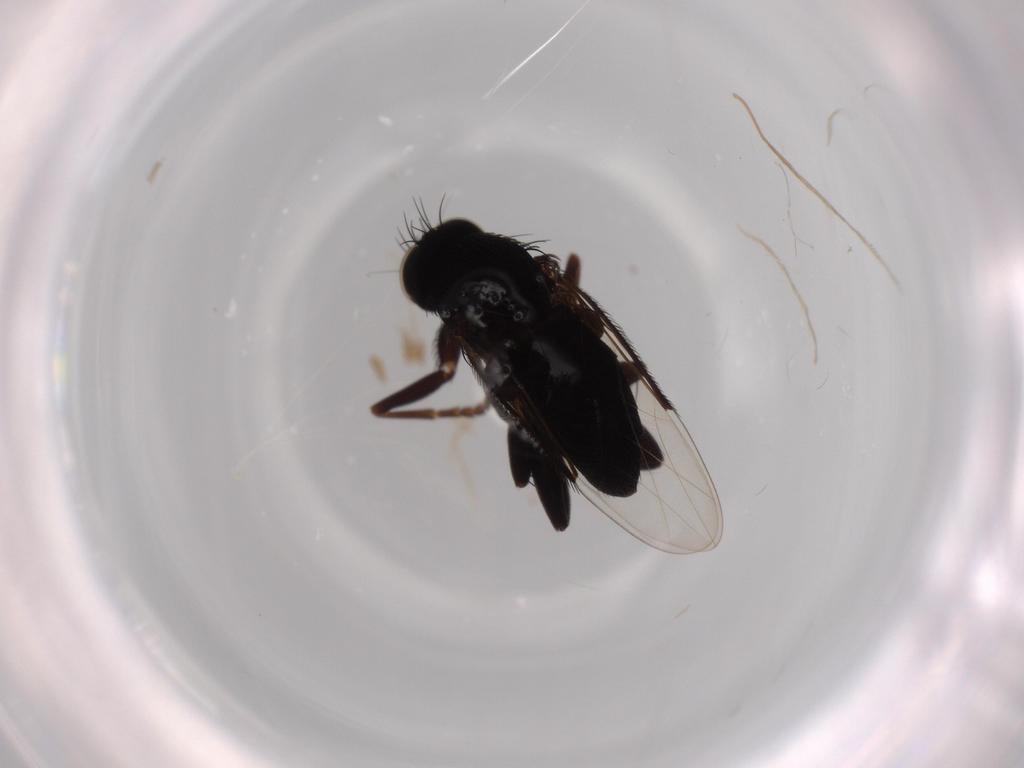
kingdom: Animalia
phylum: Arthropoda
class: Insecta
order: Diptera
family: Phoridae
